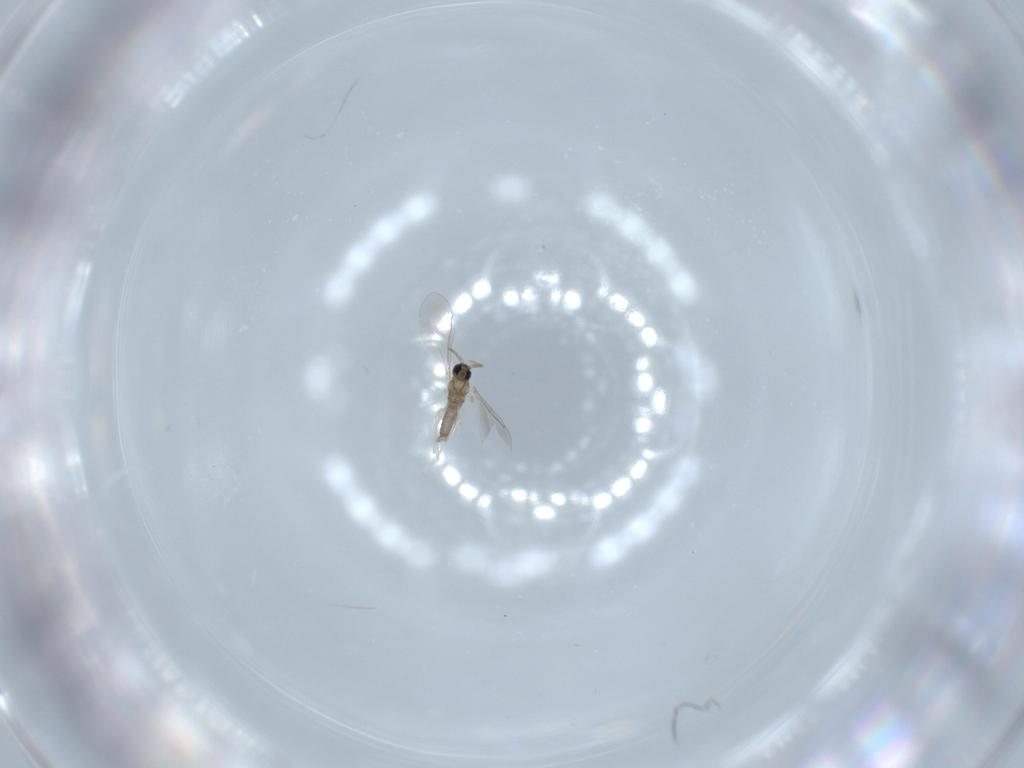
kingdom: Animalia
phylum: Arthropoda
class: Insecta
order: Diptera
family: Cecidomyiidae
